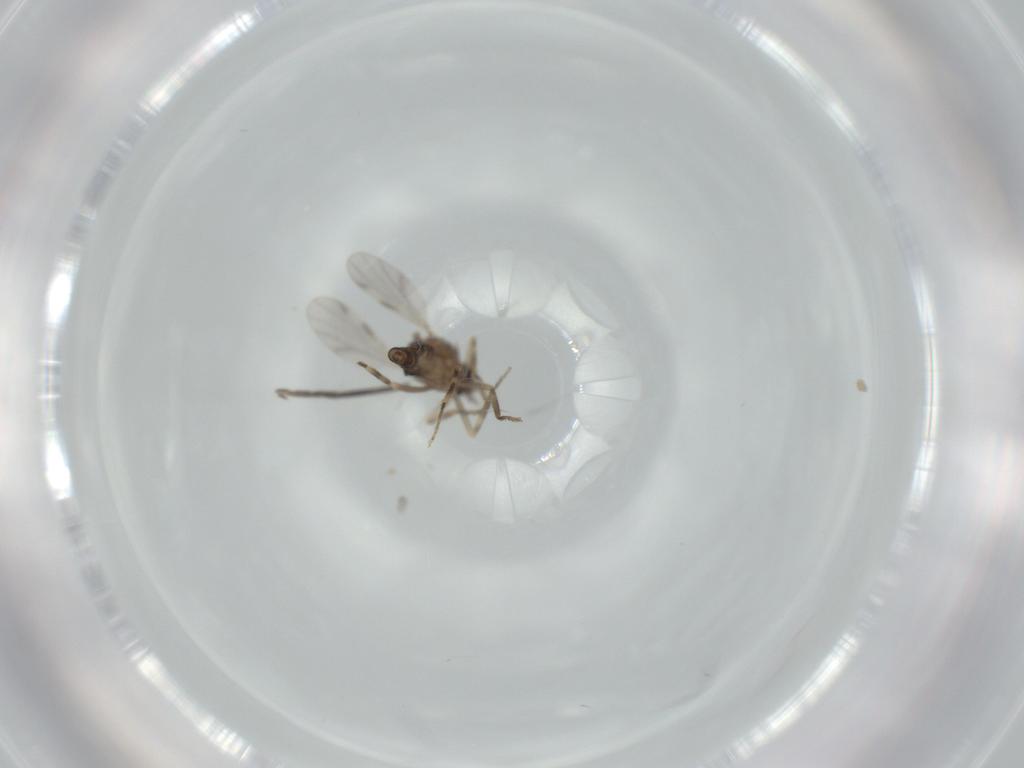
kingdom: Animalia
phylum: Arthropoda
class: Insecta
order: Diptera
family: Ceratopogonidae
